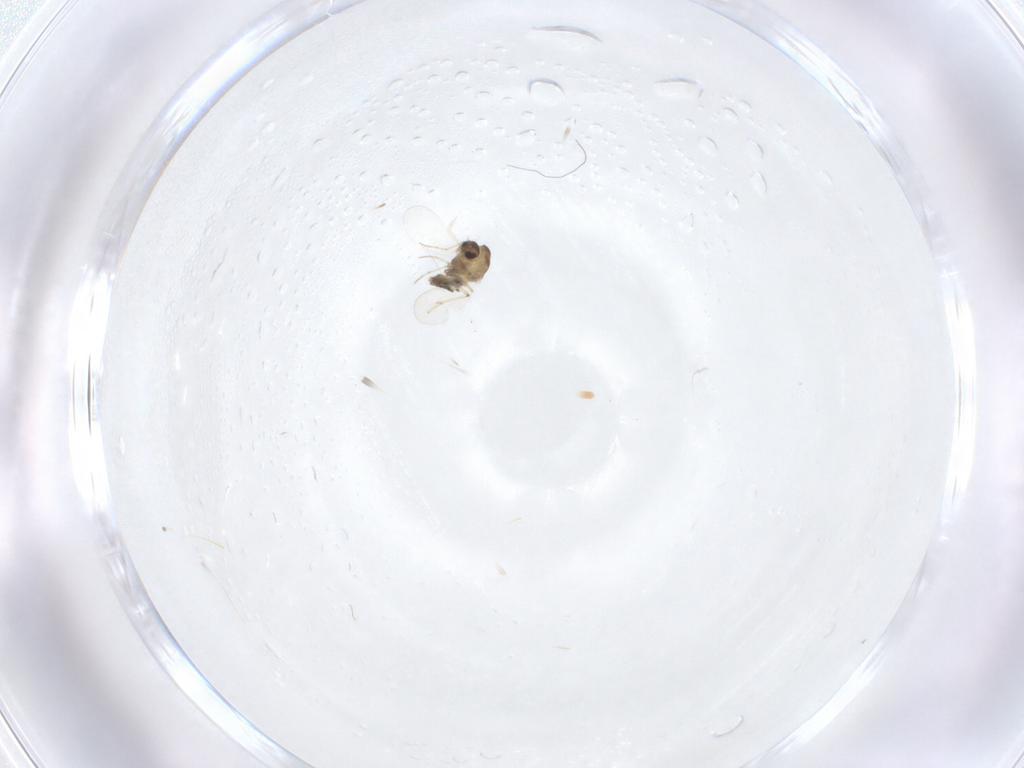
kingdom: Animalia
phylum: Arthropoda
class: Insecta
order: Diptera
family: Chironomidae
